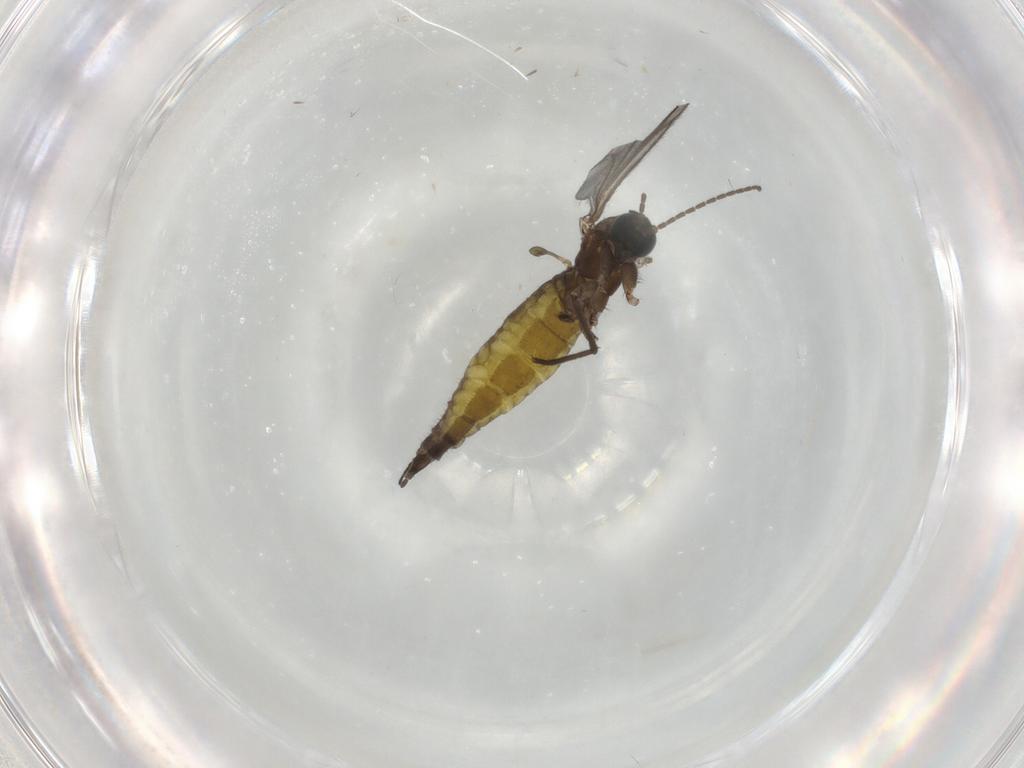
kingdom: Animalia
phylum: Arthropoda
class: Insecta
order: Diptera
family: Sciaridae
